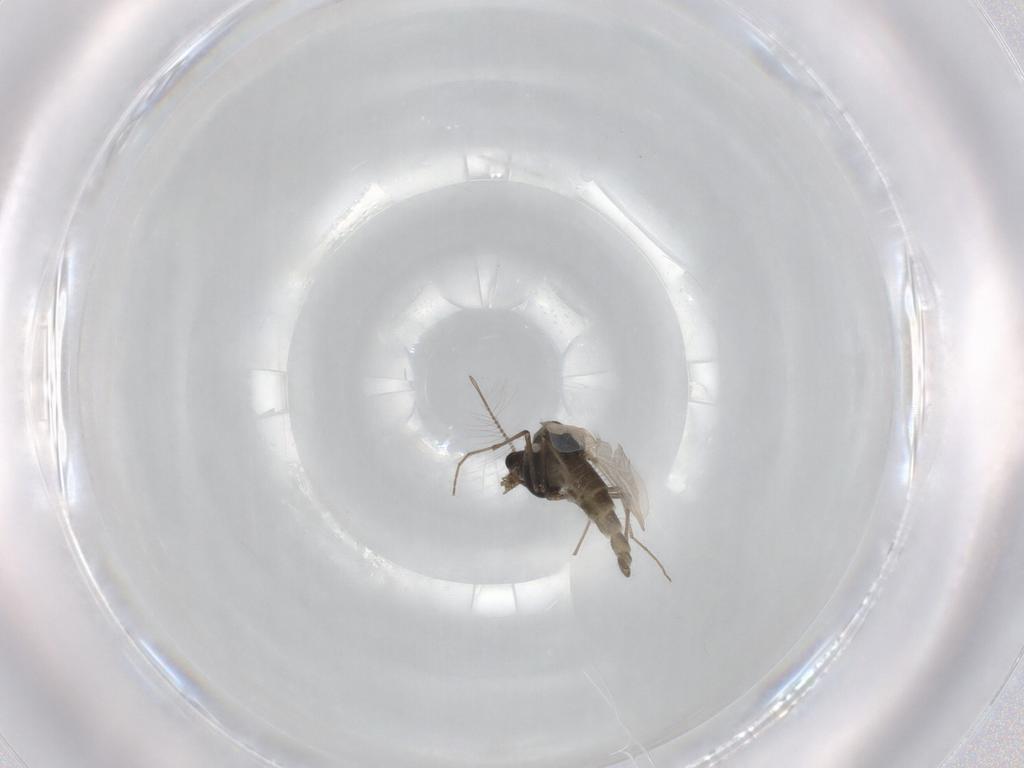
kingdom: Animalia
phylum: Arthropoda
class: Insecta
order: Diptera
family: Chironomidae
